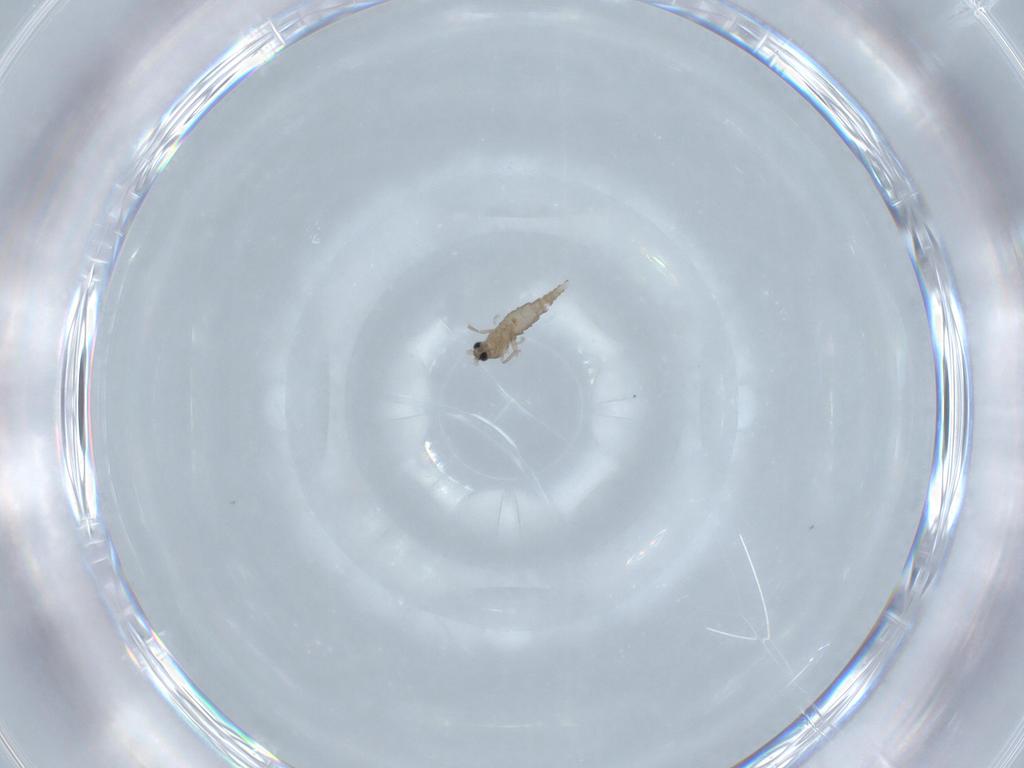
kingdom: Animalia
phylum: Arthropoda
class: Insecta
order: Diptera
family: Cecidomyiidae
